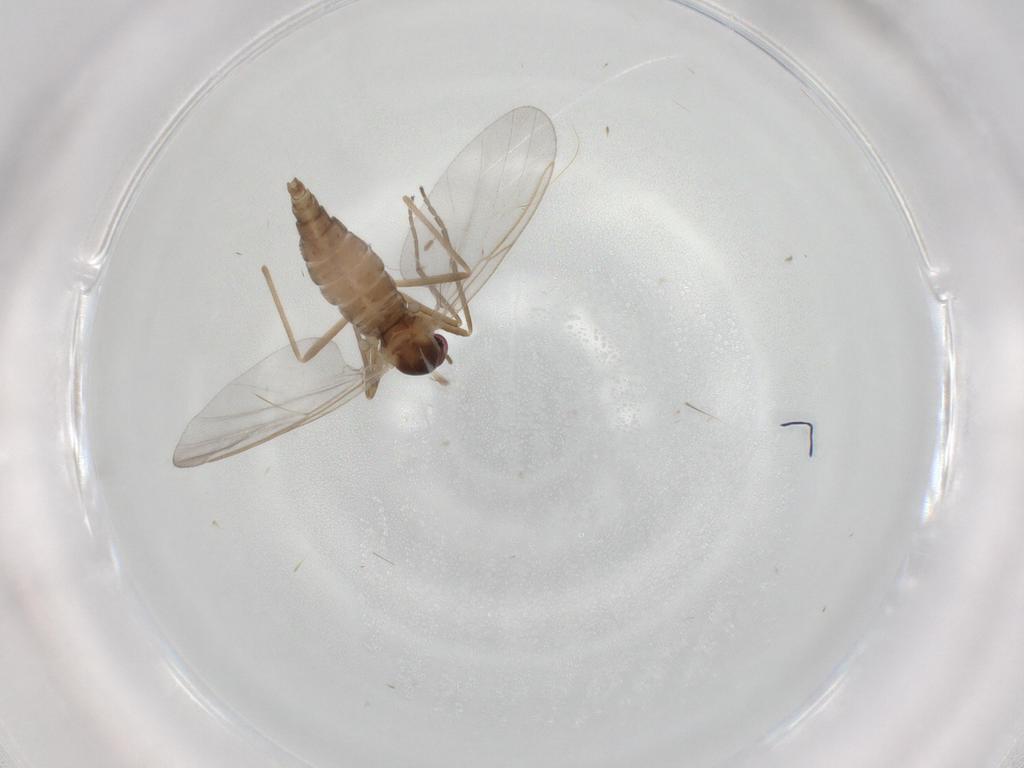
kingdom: Animalia
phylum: Arthropoda
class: Insecta
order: Diptera
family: Cecidomyiidae
